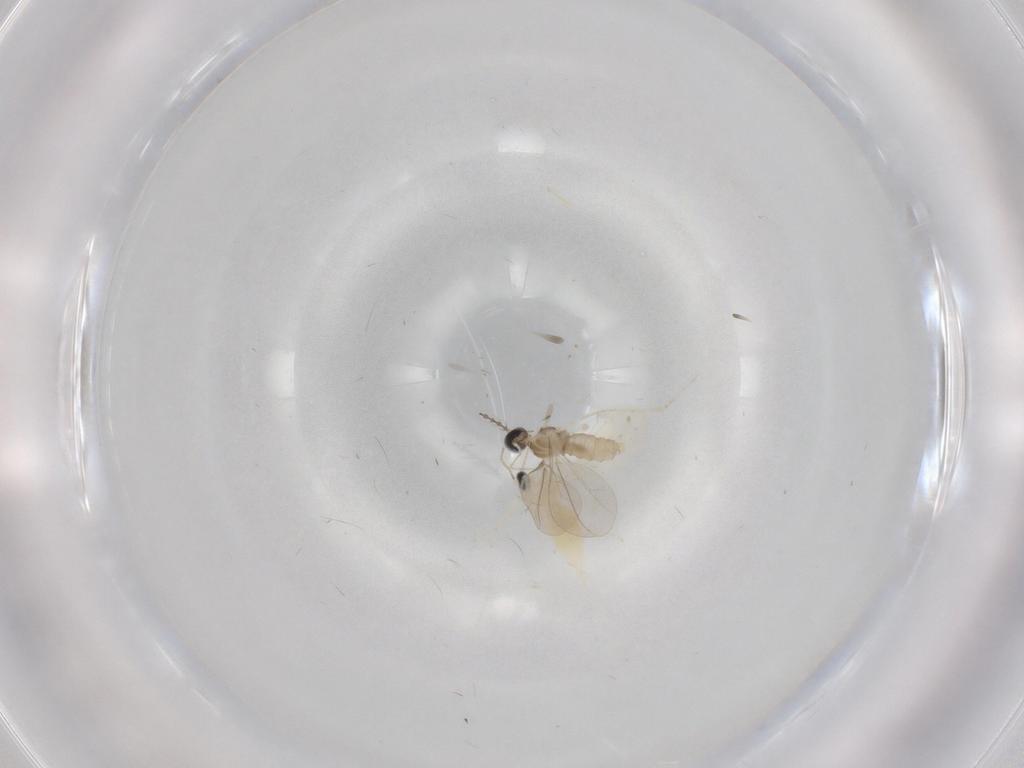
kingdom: Animalia
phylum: Arthropoda
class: Insecta
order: Diptera
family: Cecidomyiidae
